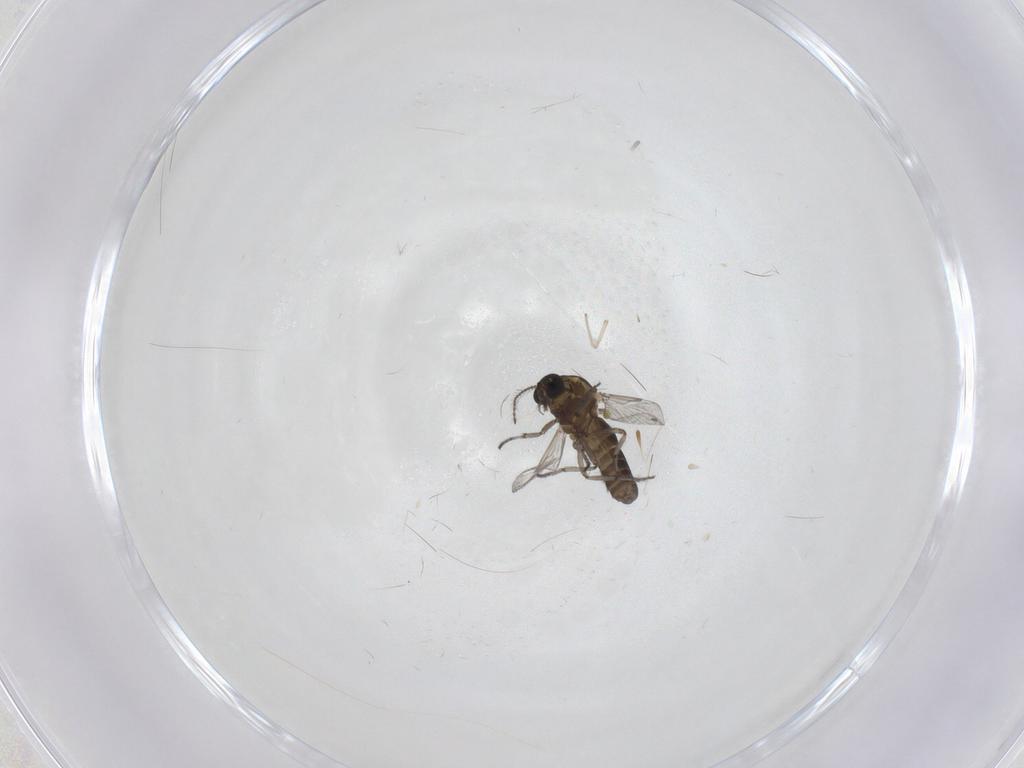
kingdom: Animalia
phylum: Arthropoda
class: Insecta
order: Diptera
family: Ceratopogonidae
